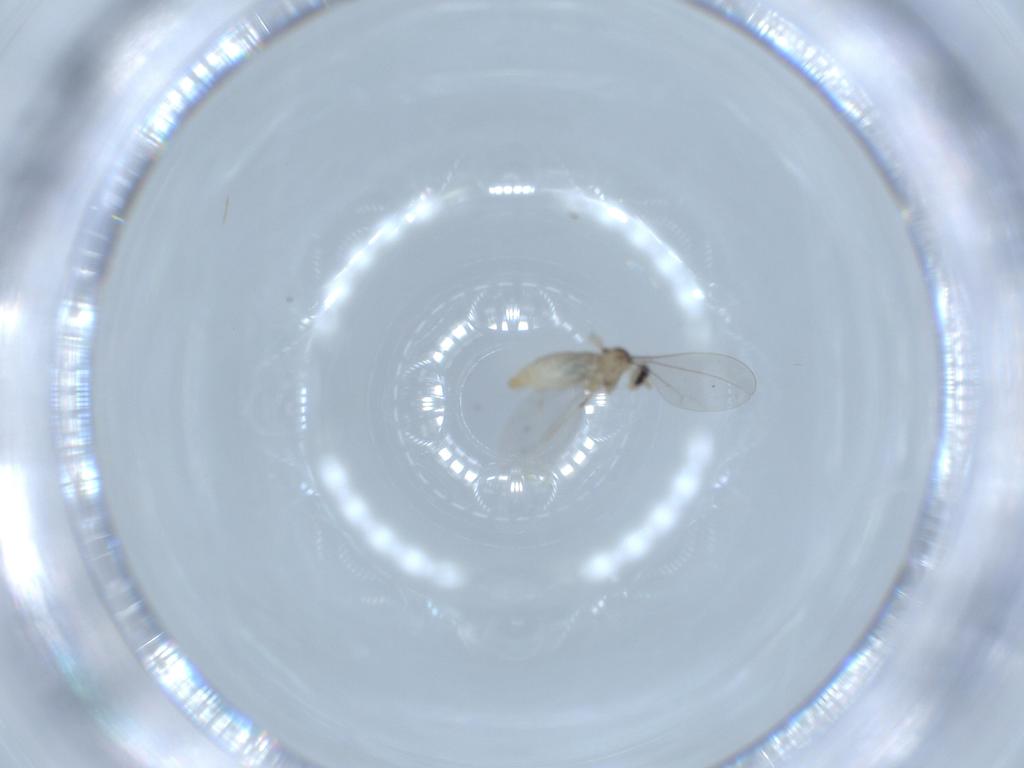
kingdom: Animalia
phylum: Arthropoda
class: Insecta
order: Diptera
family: Cecidomyiidae
